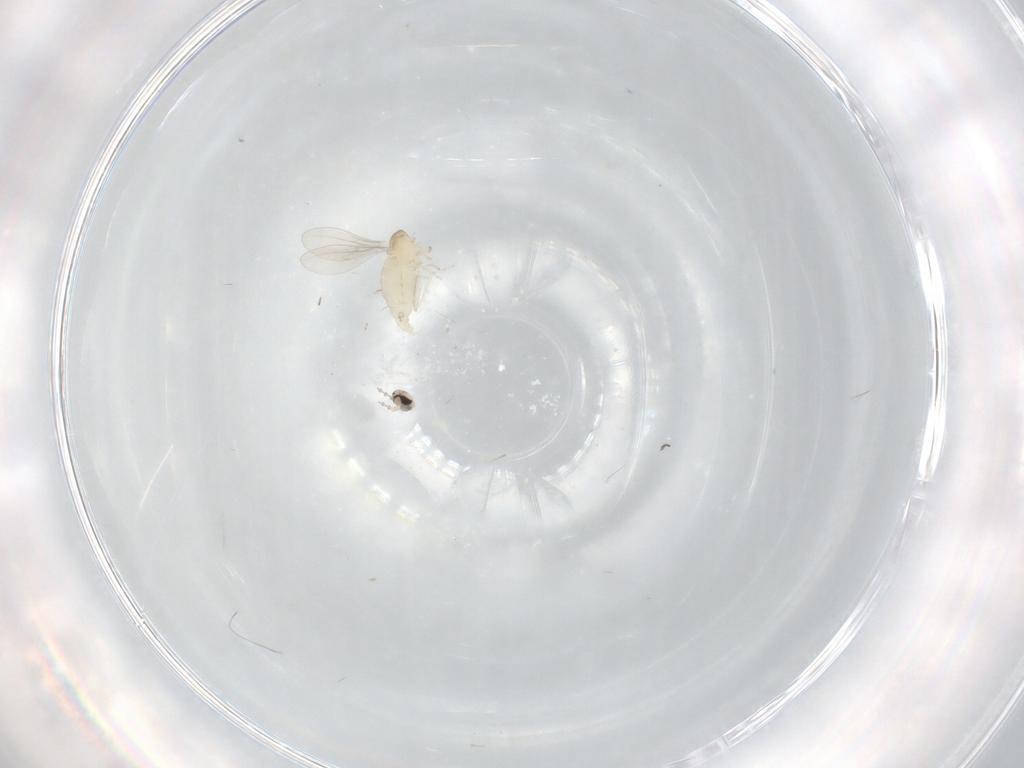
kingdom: Animalia
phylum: Arthropoda
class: Insecta
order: Diptera
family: Cecidomyiidae
